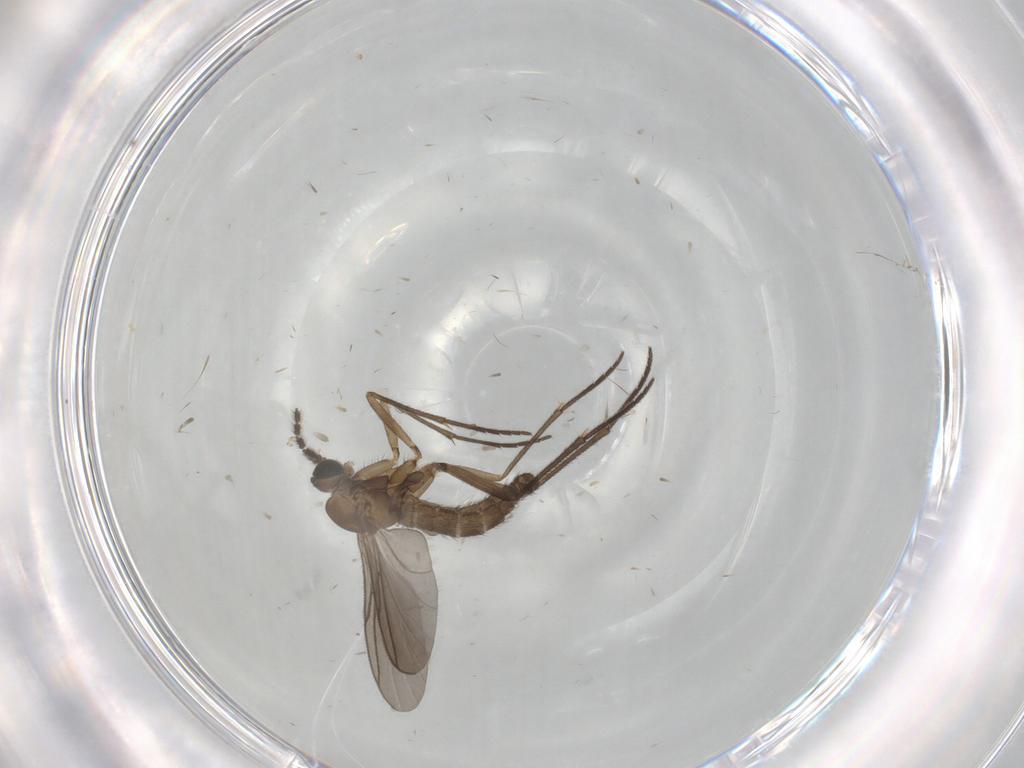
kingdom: Animalia
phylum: Arthropoda
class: Insecta
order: Diptera
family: Sciaridae
